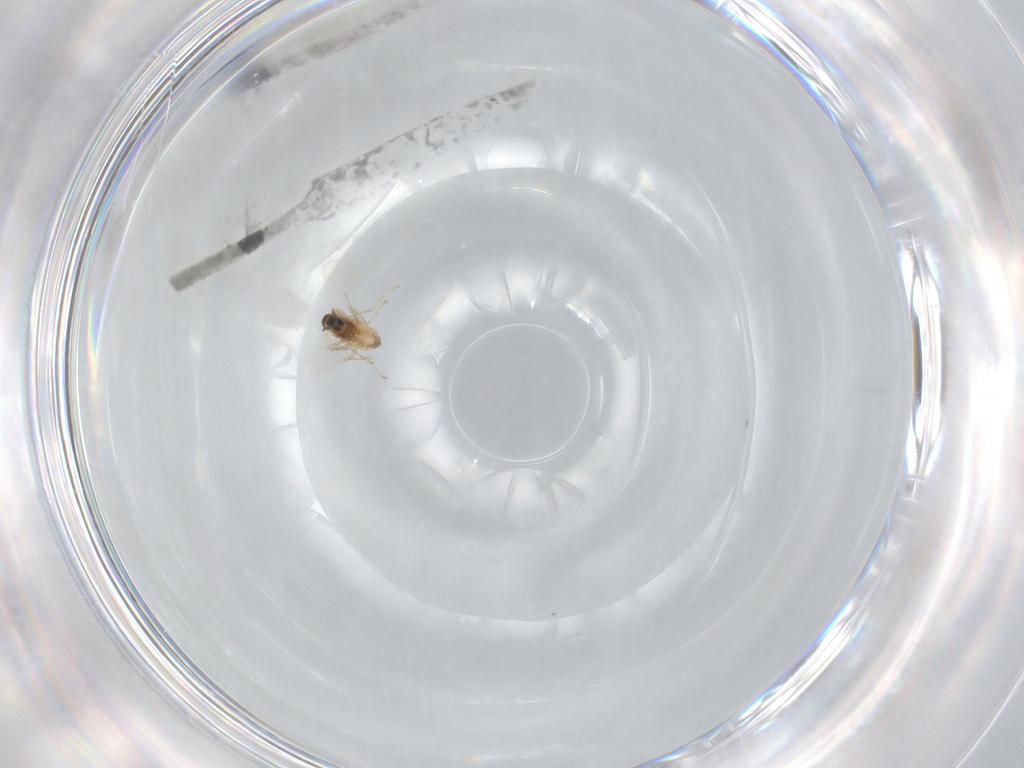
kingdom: Animalia
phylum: Arthropoda
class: Insecta
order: Diptera
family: Cecidomyiidae
